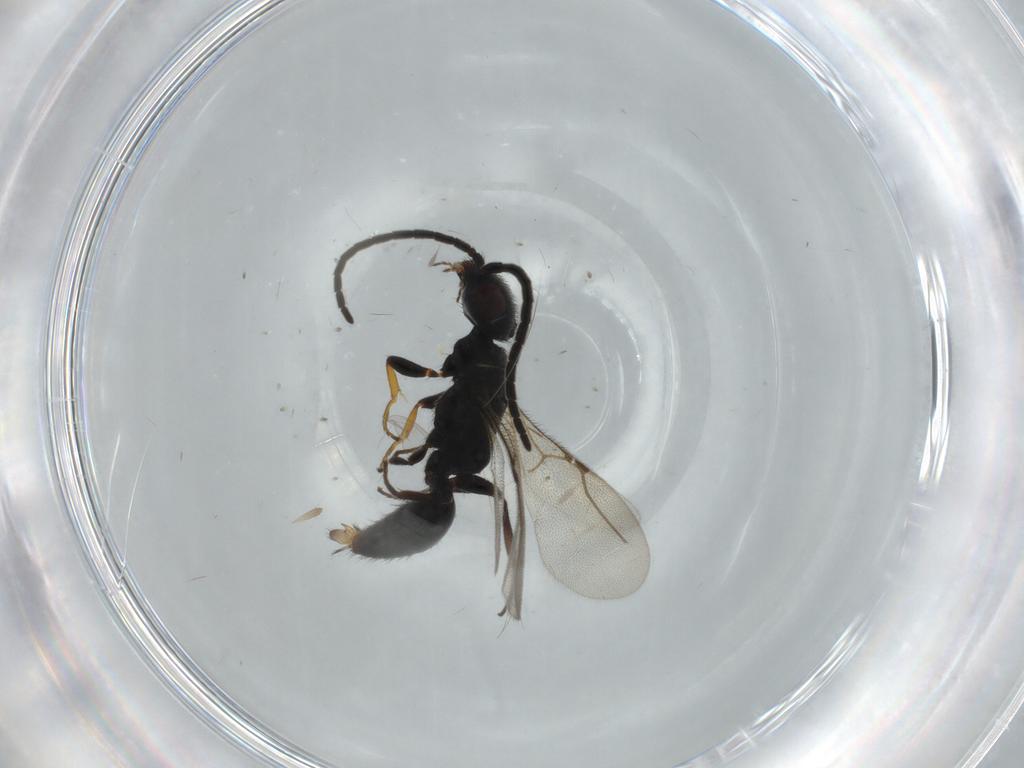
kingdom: Animalia
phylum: Arthropoda
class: Insecta
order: Hymenoptera
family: Bethylidae
